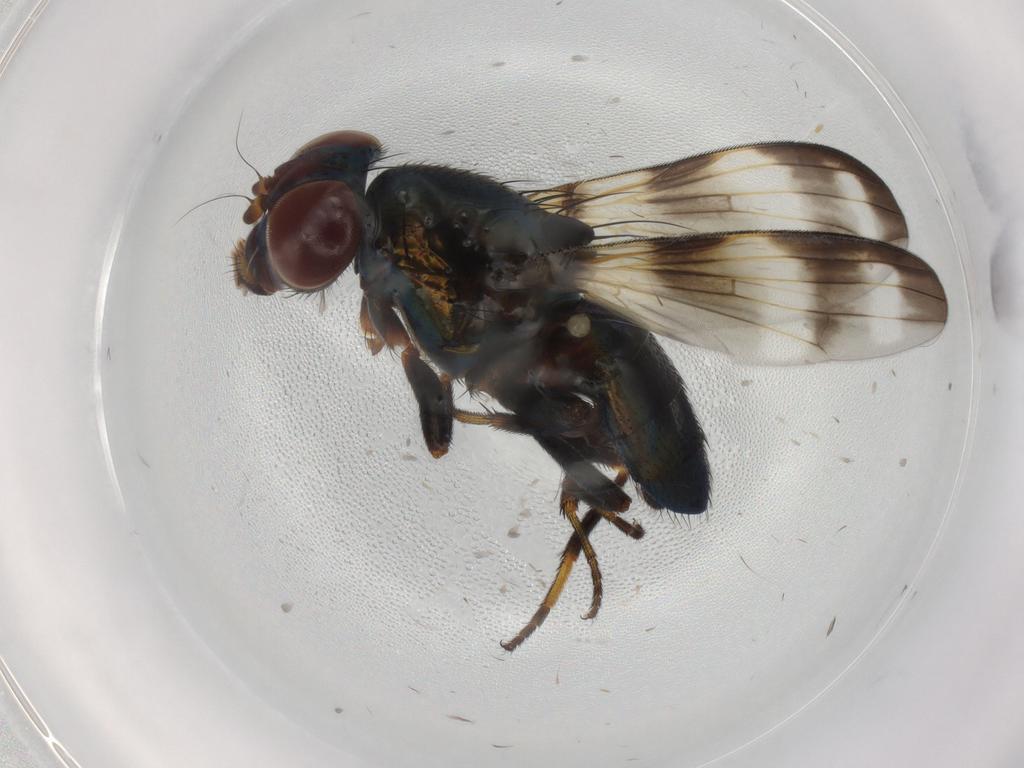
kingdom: Animalia
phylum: Arthropoda
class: Insecta
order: Diptera
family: Ulidiidae
